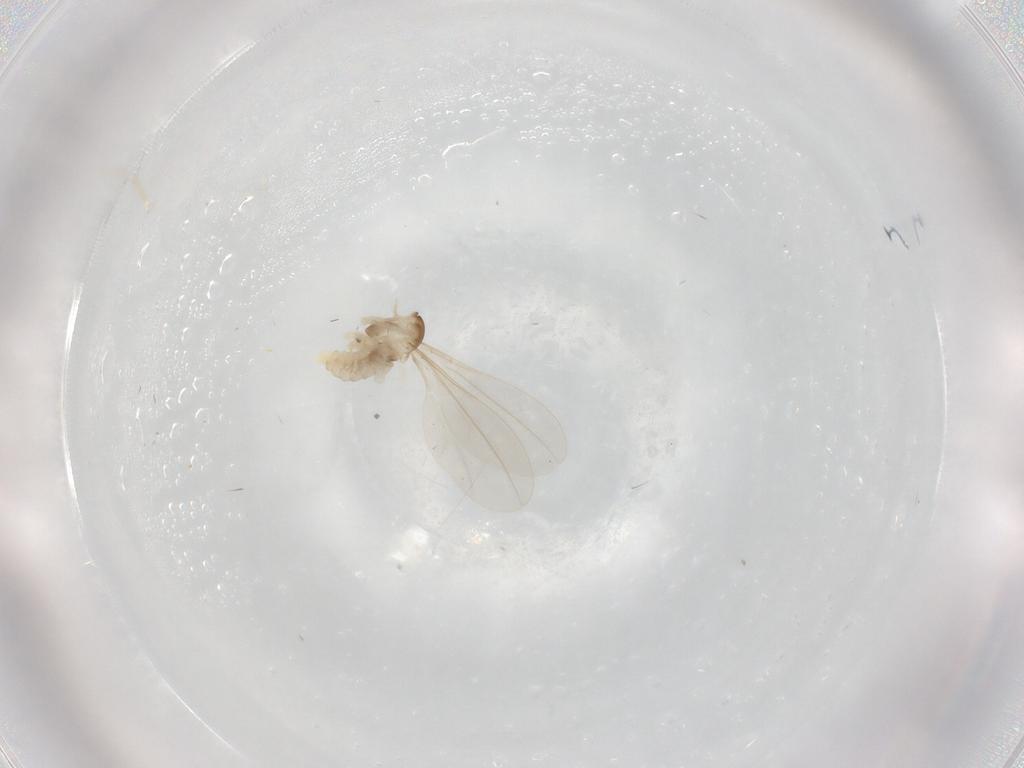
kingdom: Animalia
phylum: Arthropoda
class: Insecta
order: Diptera
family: Cecidomyiidae
